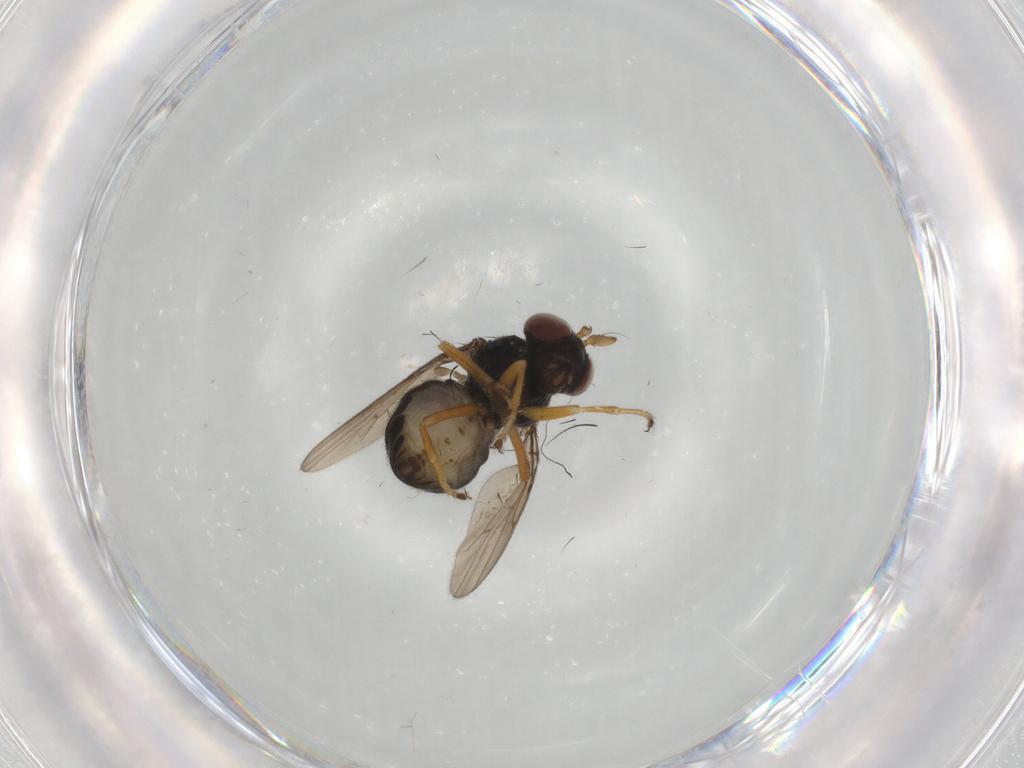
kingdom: Animalia
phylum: Arthropoda
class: Insecta
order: Diptera
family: Ephydridae
